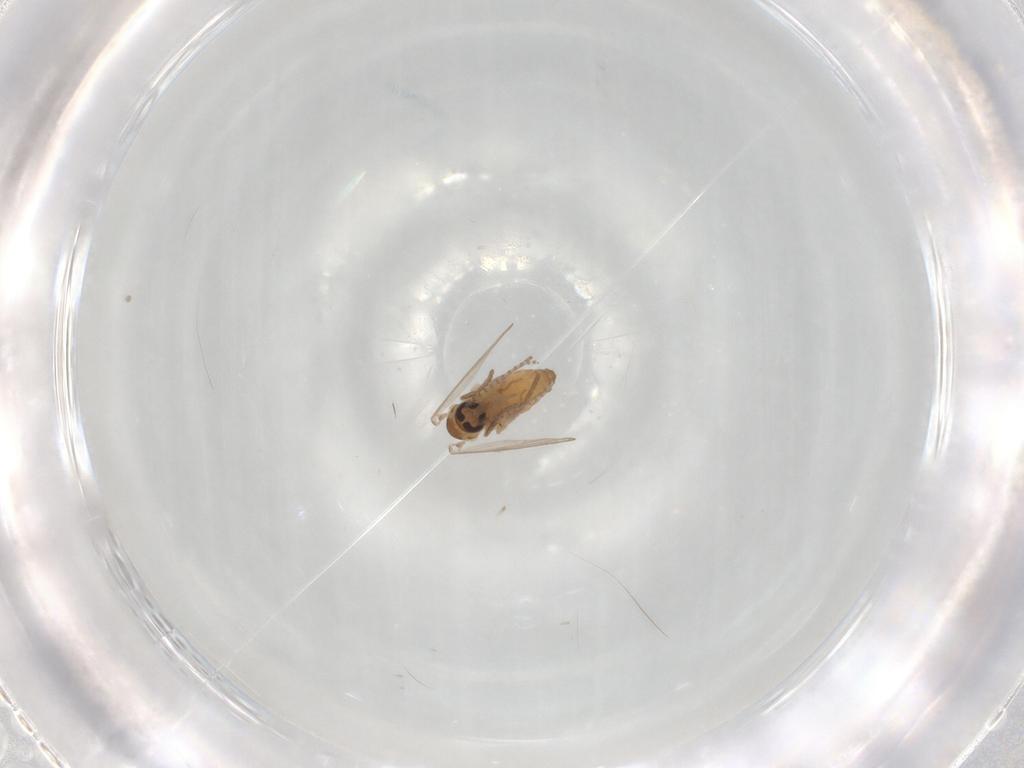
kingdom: Animalia
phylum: Arthropoda
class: Insecta
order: Diptera
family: Psychodidae
